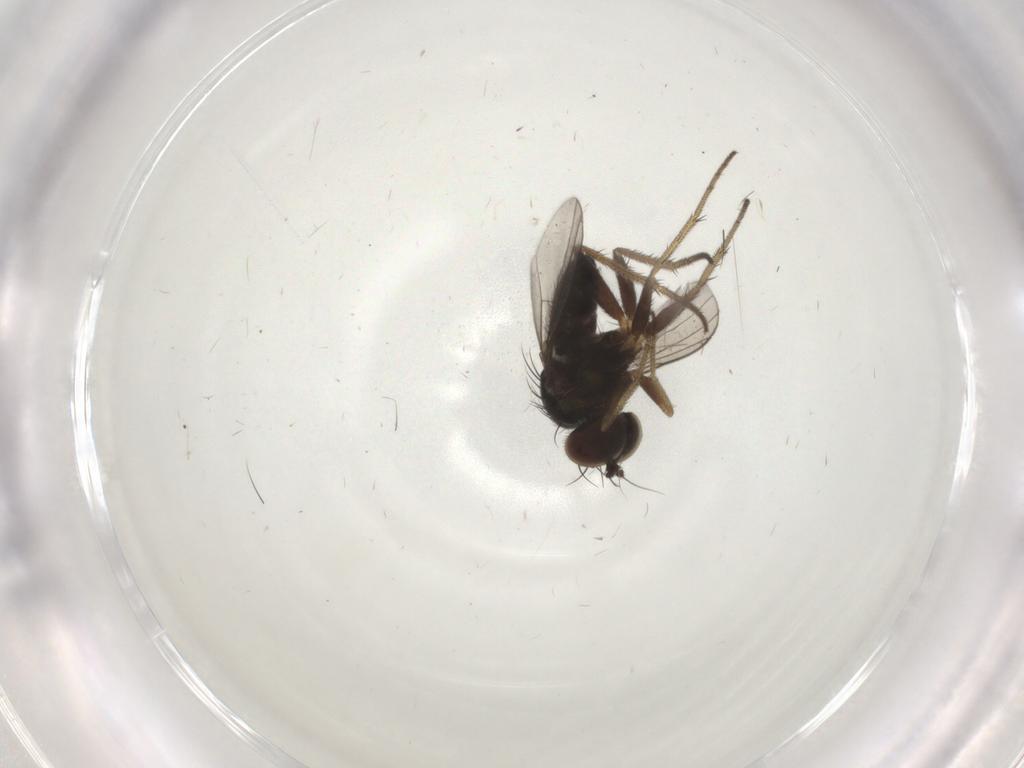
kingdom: Animalia
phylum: Arthropoda
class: Insecta
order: Diptera
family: Dolichopodidae
